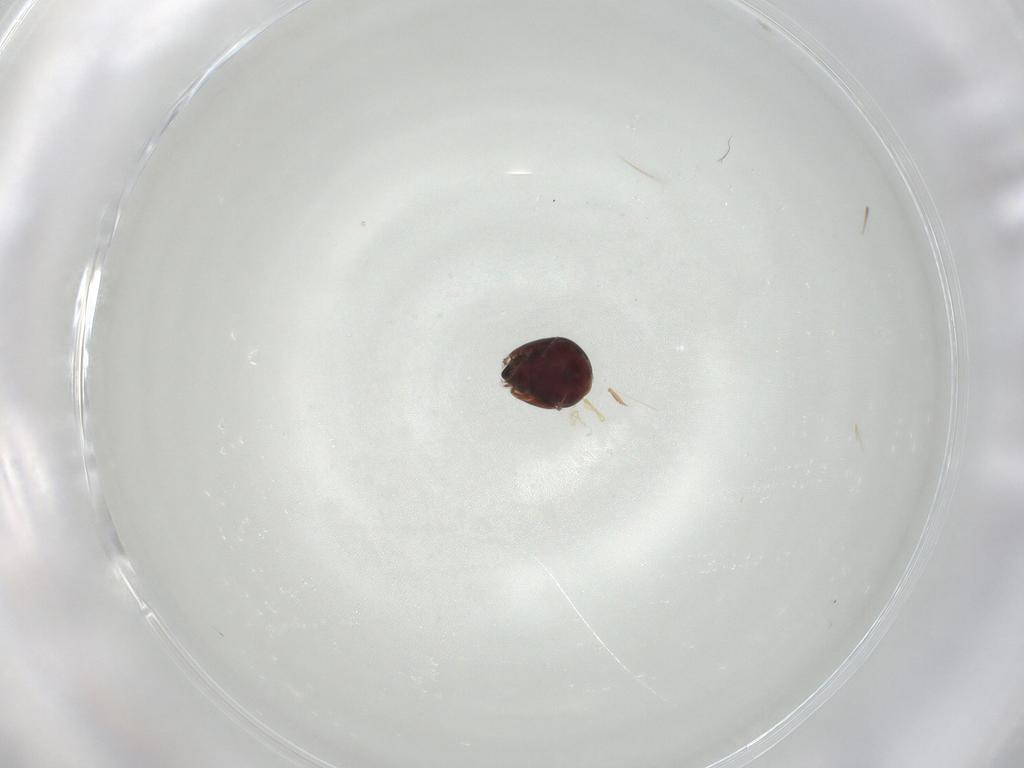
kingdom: Animalia
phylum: Arthropoda
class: Arachnida
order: Sarcoptiformes
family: Galumnidae
